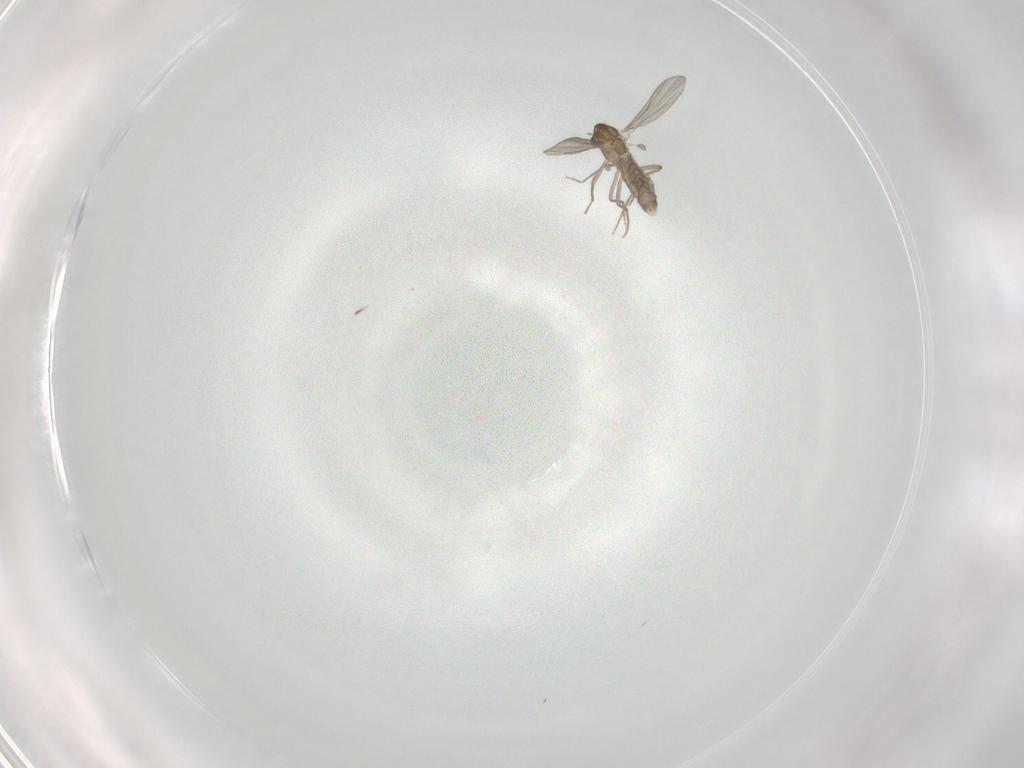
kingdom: Animalia
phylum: Arthropoda
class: Insecta
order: Diptera
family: Chironomidae
